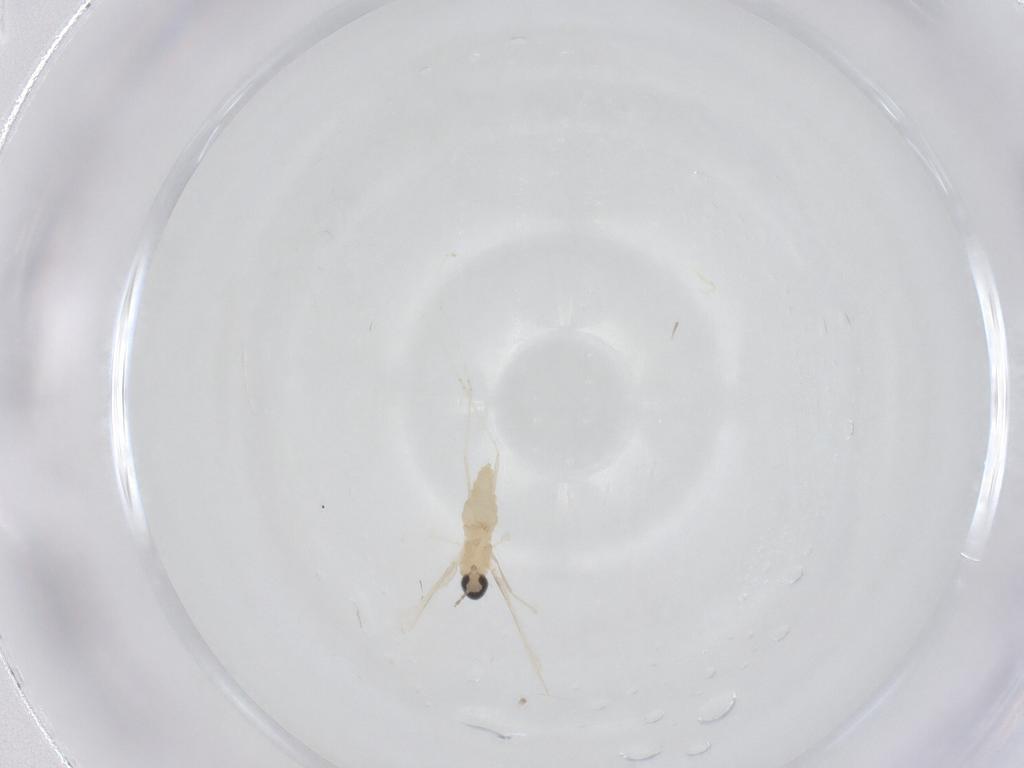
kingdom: Animalia
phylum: Arthropoda
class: Insecta
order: Diptera
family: Cecidomyiidae
